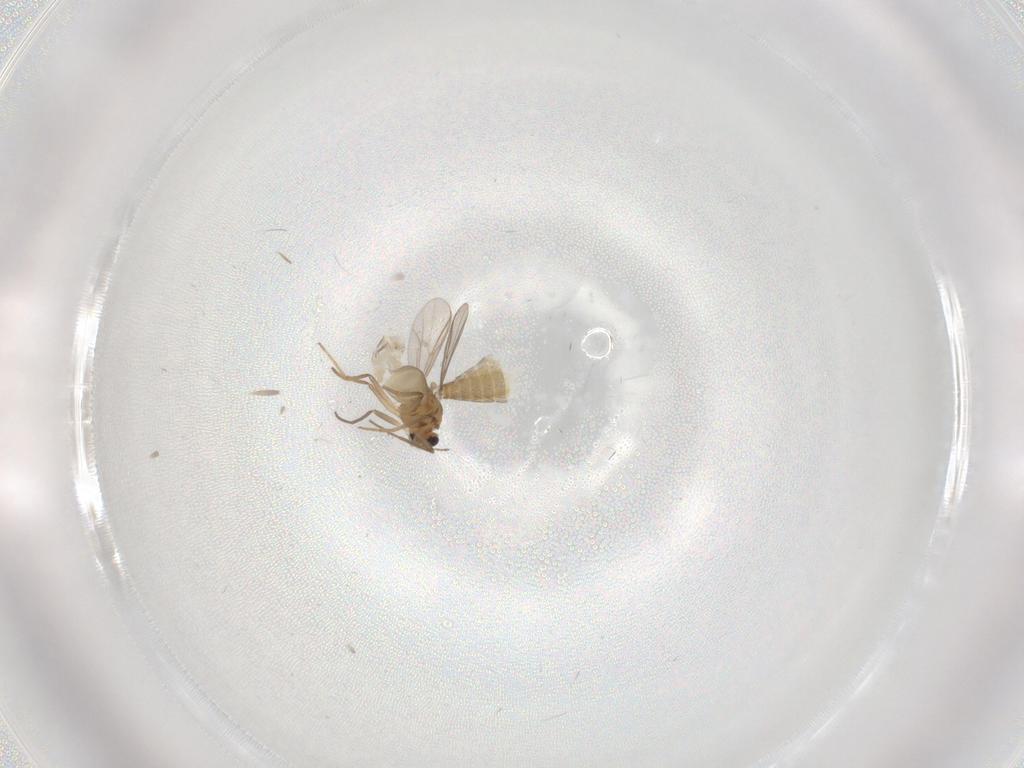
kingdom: Animalia
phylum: Arthropoda
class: Insecta
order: Diptera
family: Chironomidae
